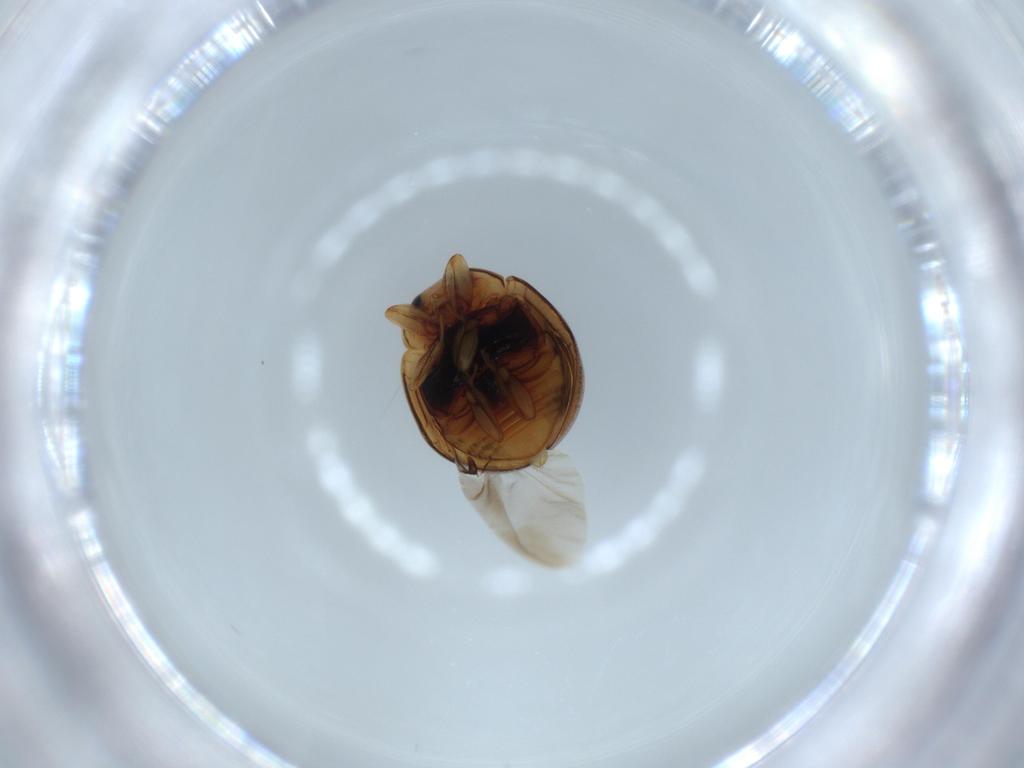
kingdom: Animalia
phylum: Arthropoda
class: Insecta
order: Coleoptera
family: Coccinellidae
